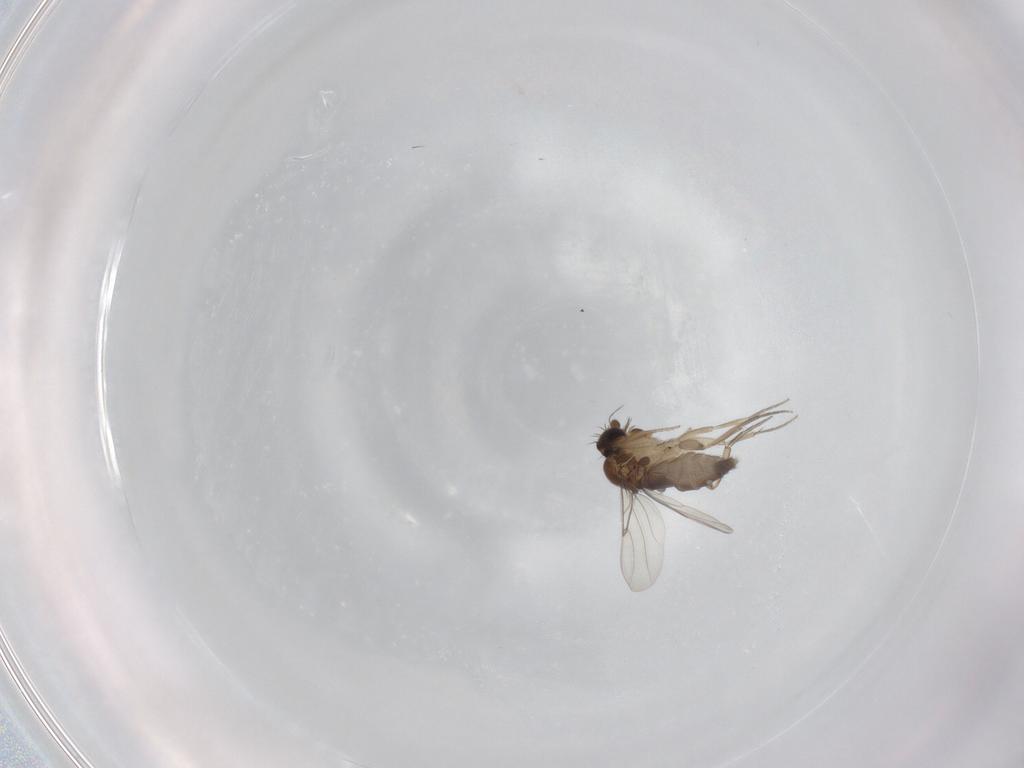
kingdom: Animalia
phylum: Arthropoda
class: Insecta
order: Diptera
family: Phoridae
